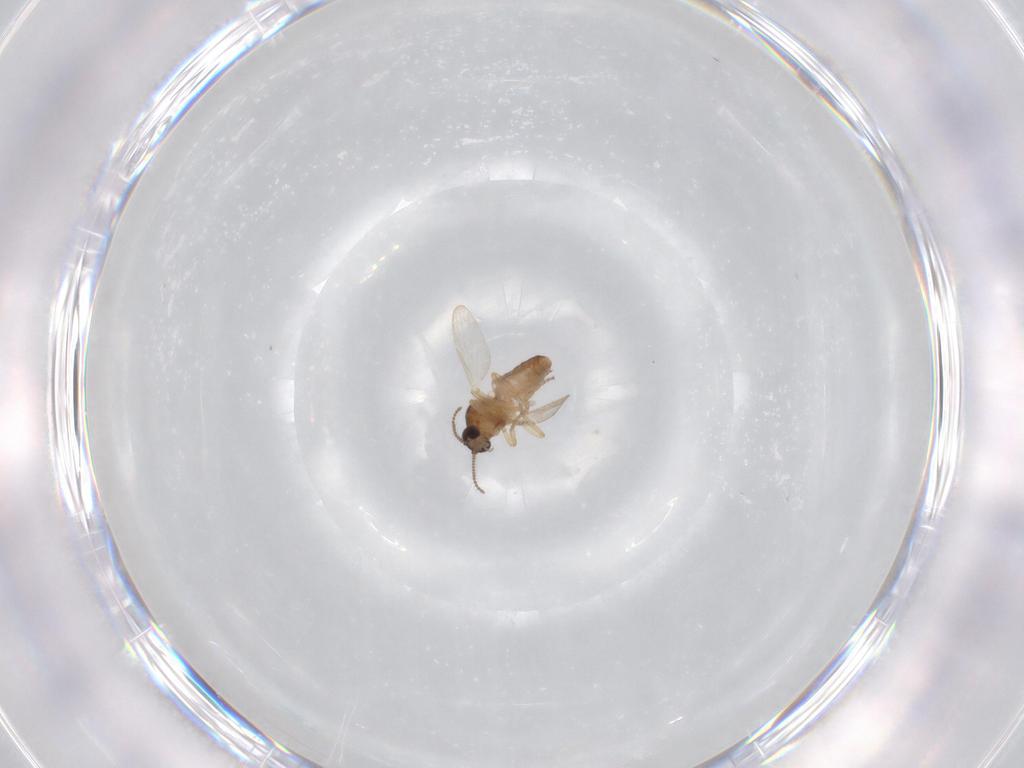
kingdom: Animalia
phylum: Arthropoda
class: Insecta
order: Diptera
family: Ceratopogonidae
